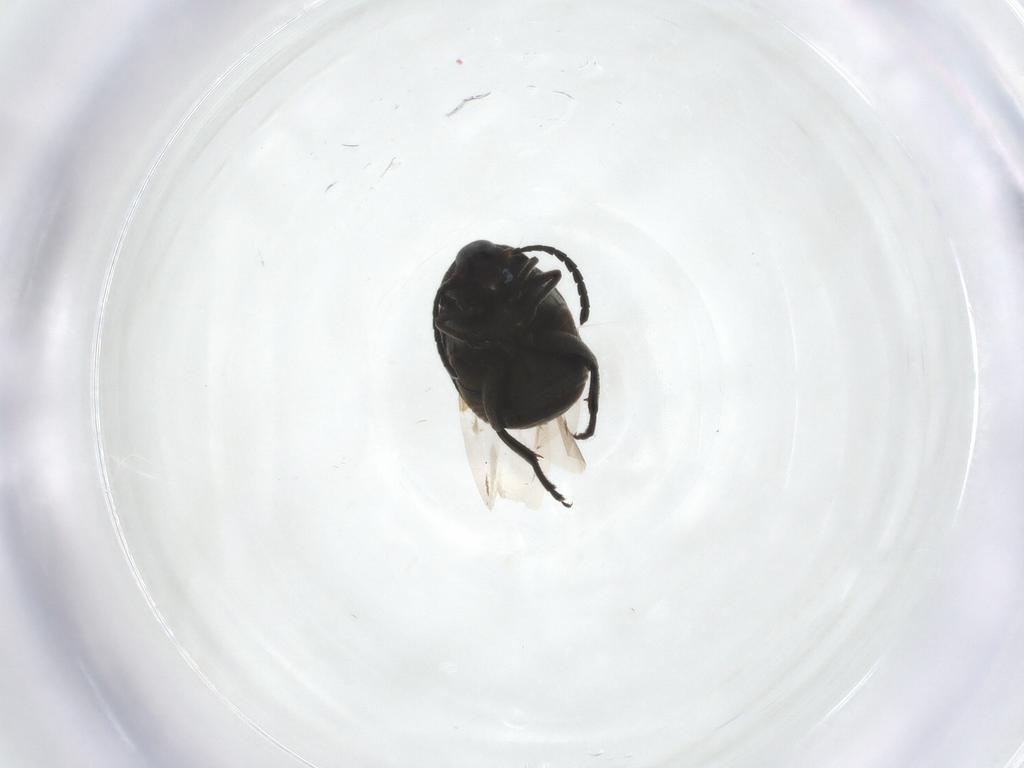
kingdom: Animalia
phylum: Arthropoda
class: Insecta
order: Coleoptera
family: Chrysomelidae
